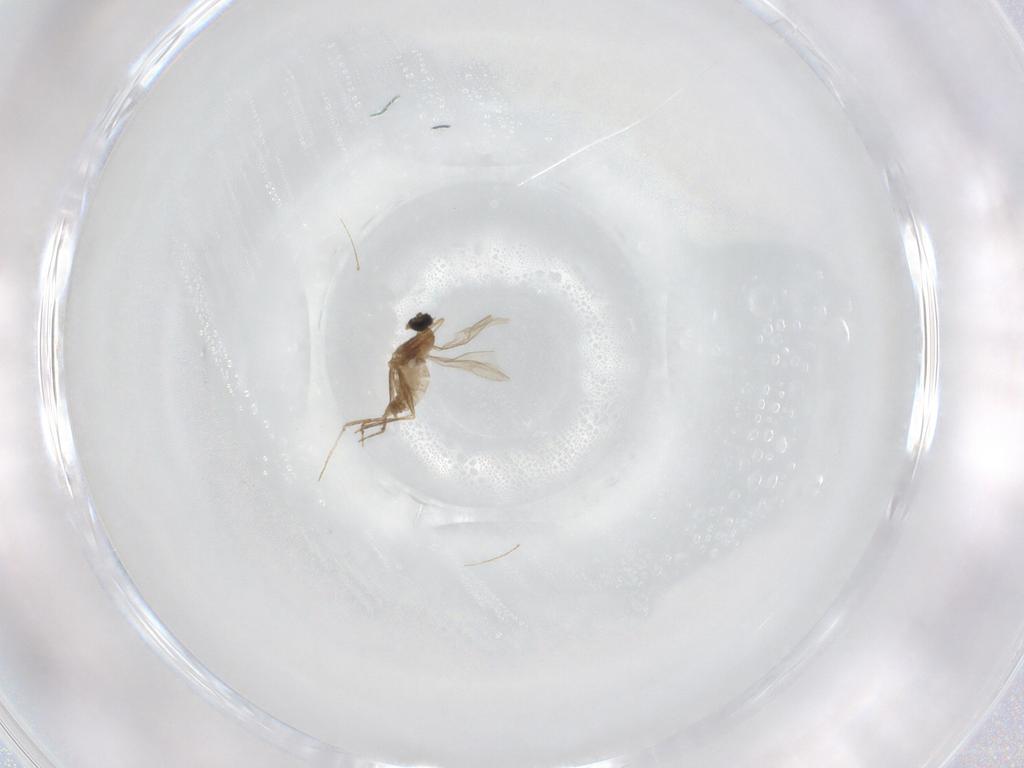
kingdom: Animalia
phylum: Arthropoda
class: Insecta
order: Diptera
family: Cecidomyiidae
